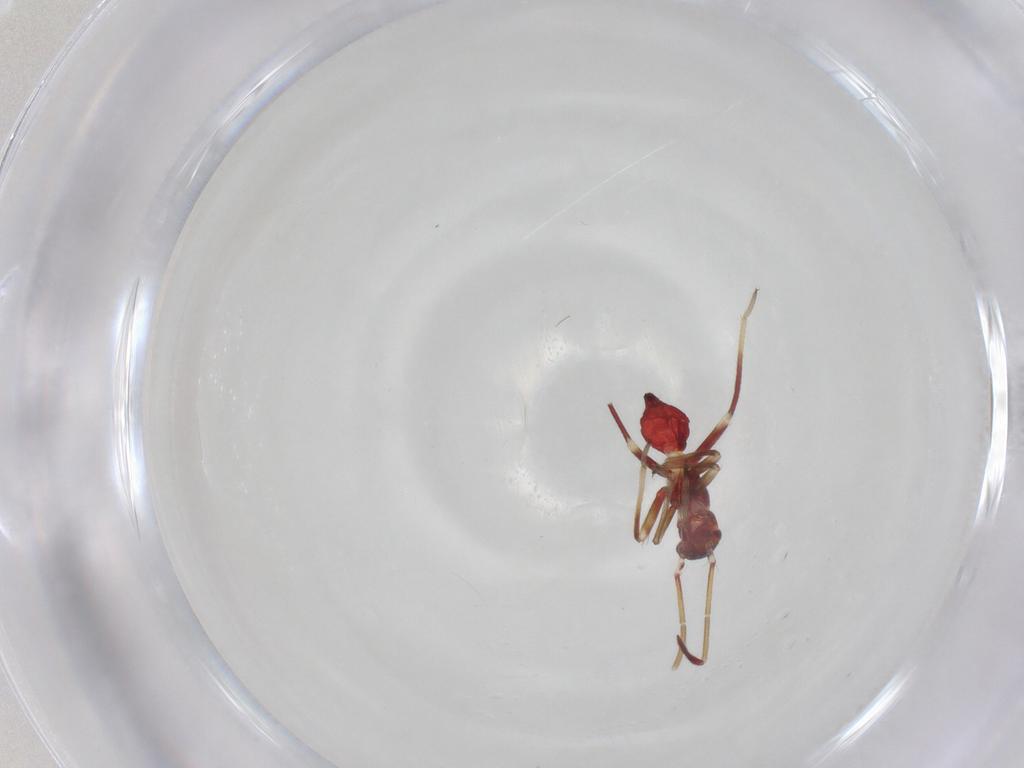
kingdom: Animalia
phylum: Arthropoda
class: Insecta
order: Hemiptera
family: Miridae
